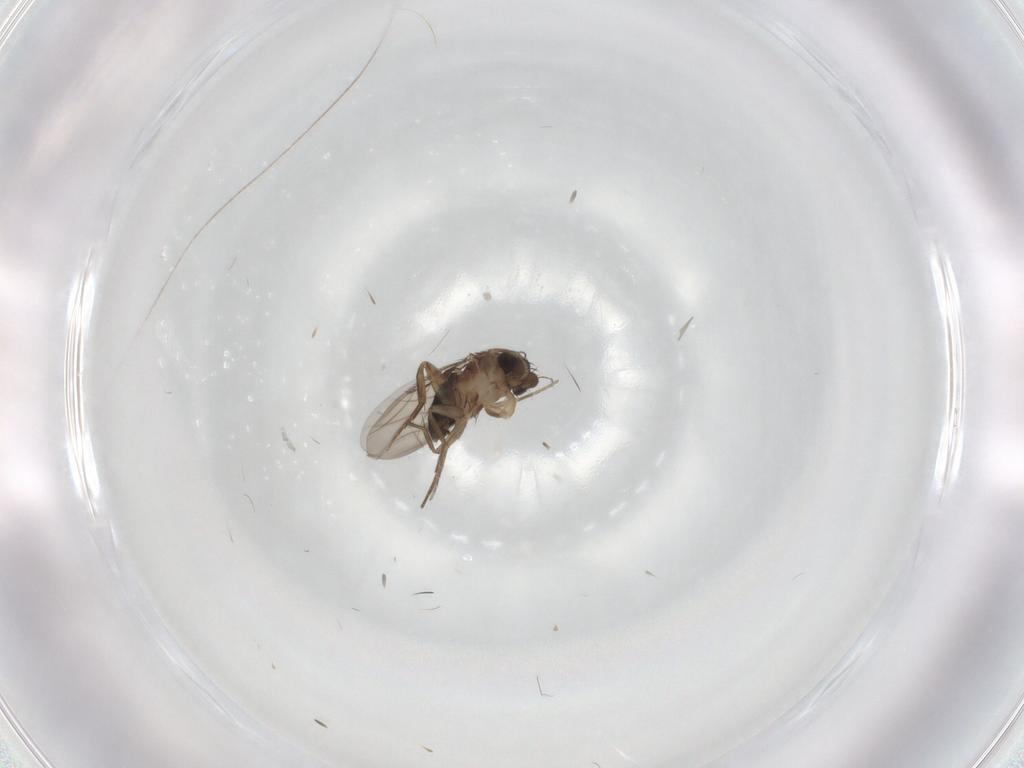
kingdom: Animalia
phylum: Arthropoda
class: Insecta
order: Diptera
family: Phoridae
